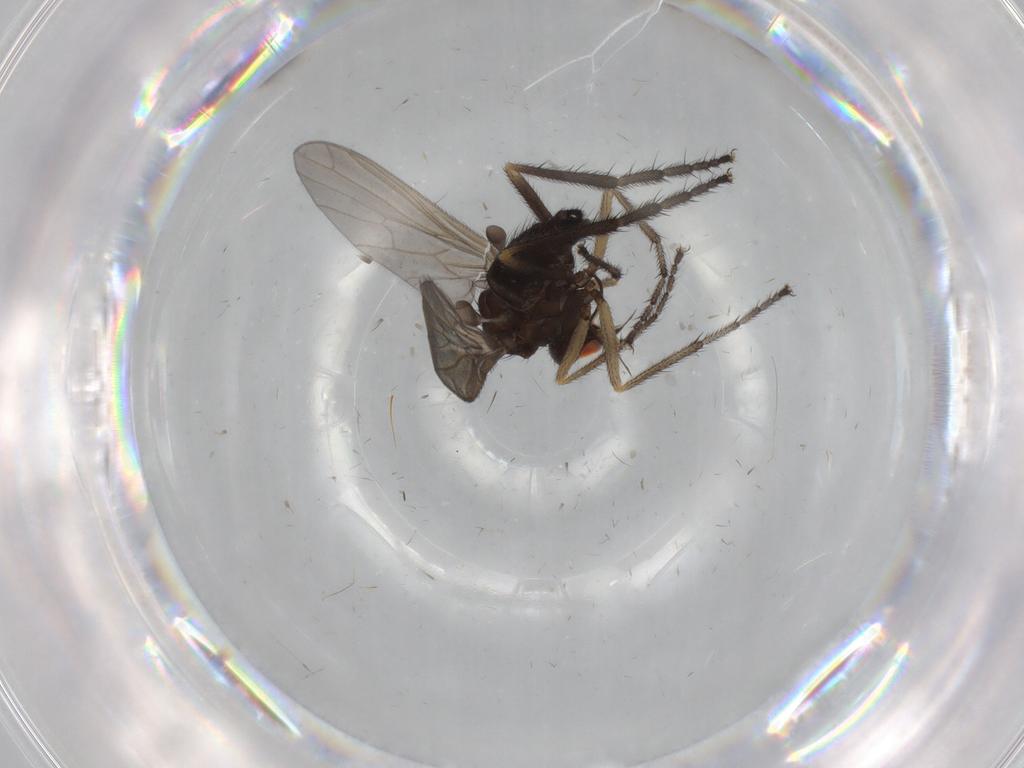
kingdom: Animalia
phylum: Arthropoda
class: Insecta
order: Diptera
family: Empididae
